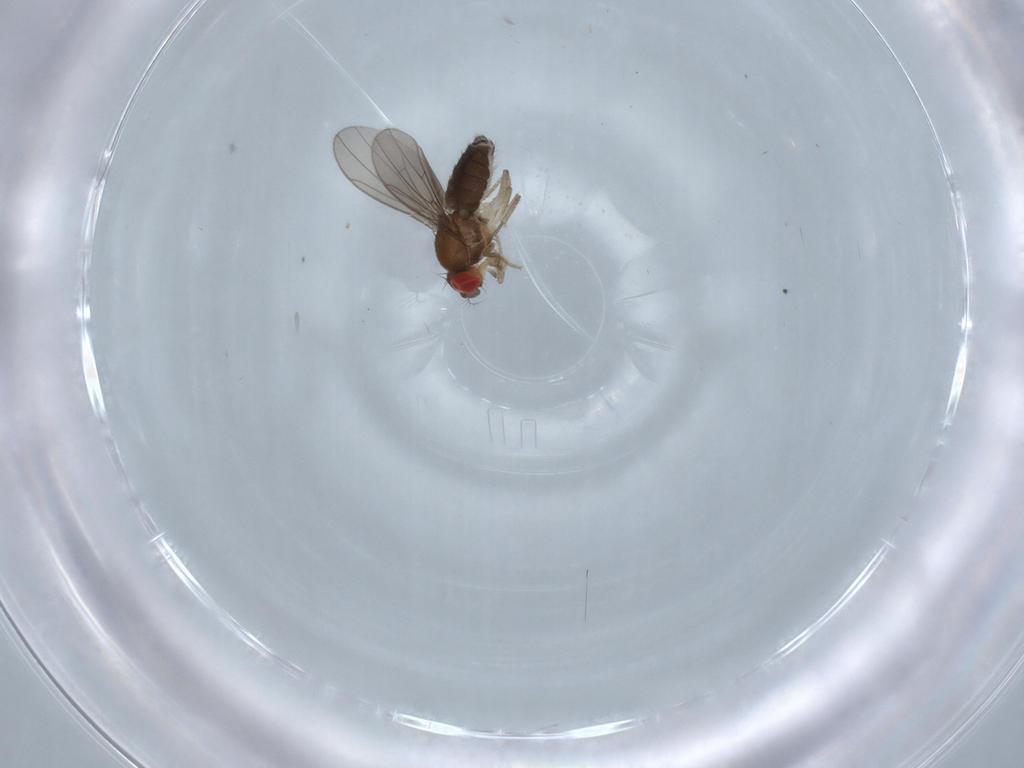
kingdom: Animalia
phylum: Arthropoda
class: Insecta
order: Diptera
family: Drosophilidae
